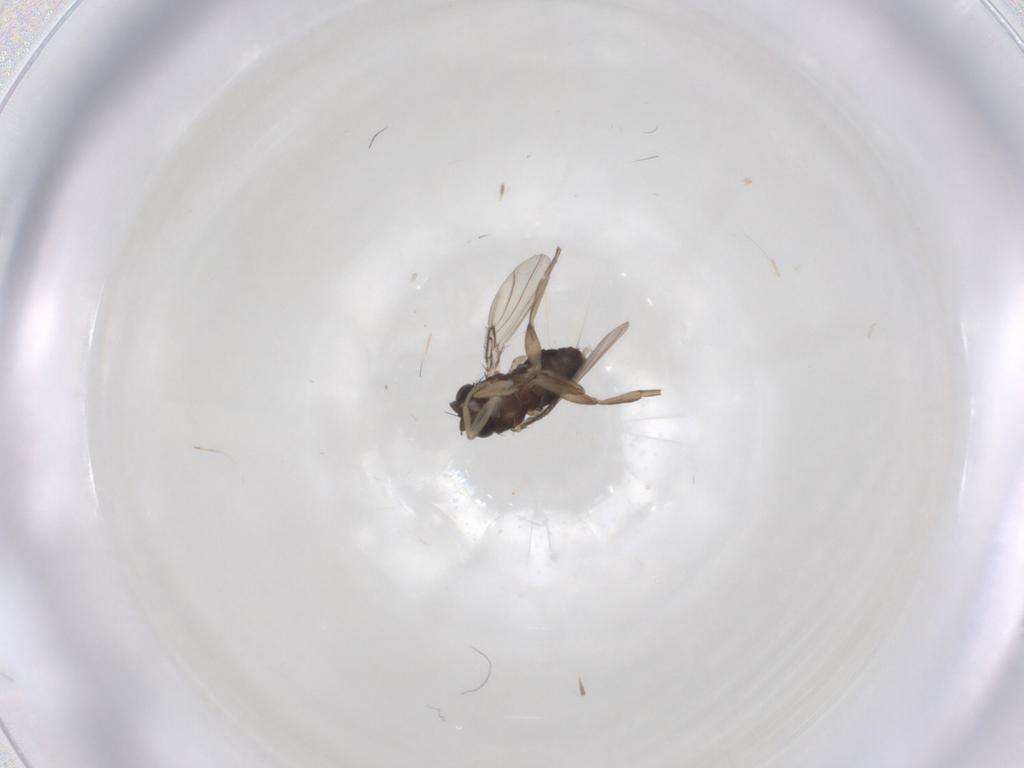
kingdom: Animalia
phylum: Arthropoda
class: Insecta
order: Diptera
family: Phoridae
